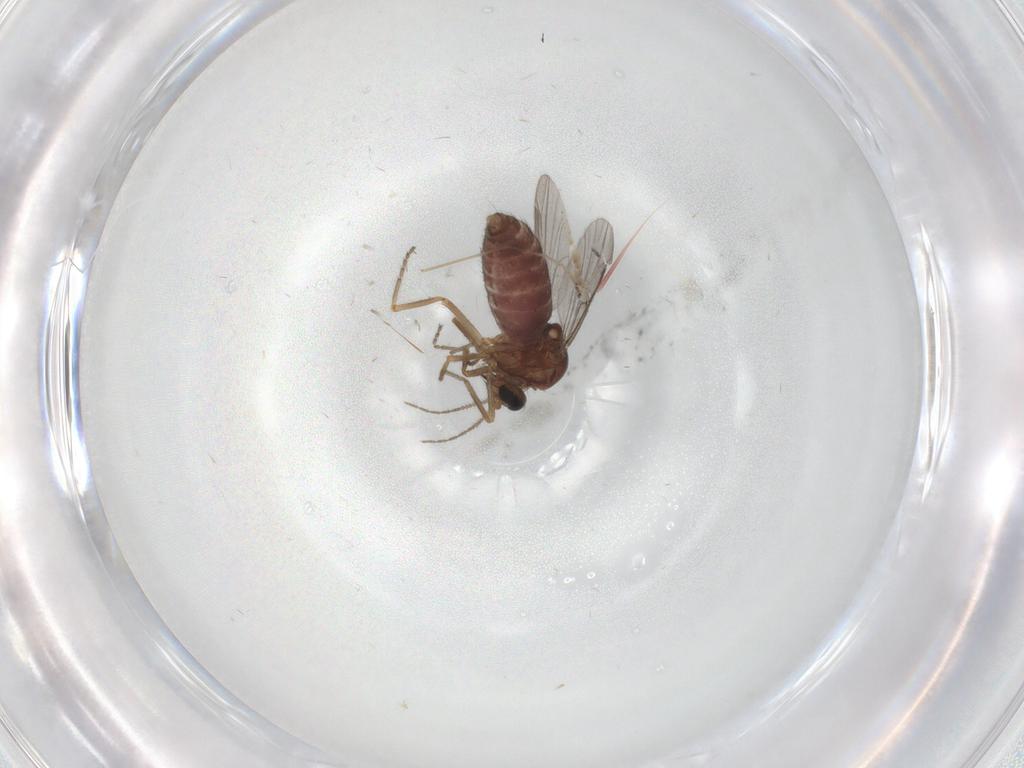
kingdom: Animalia
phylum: Arthropoda
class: Insecta
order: Diptera
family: Ceratopogonidae
